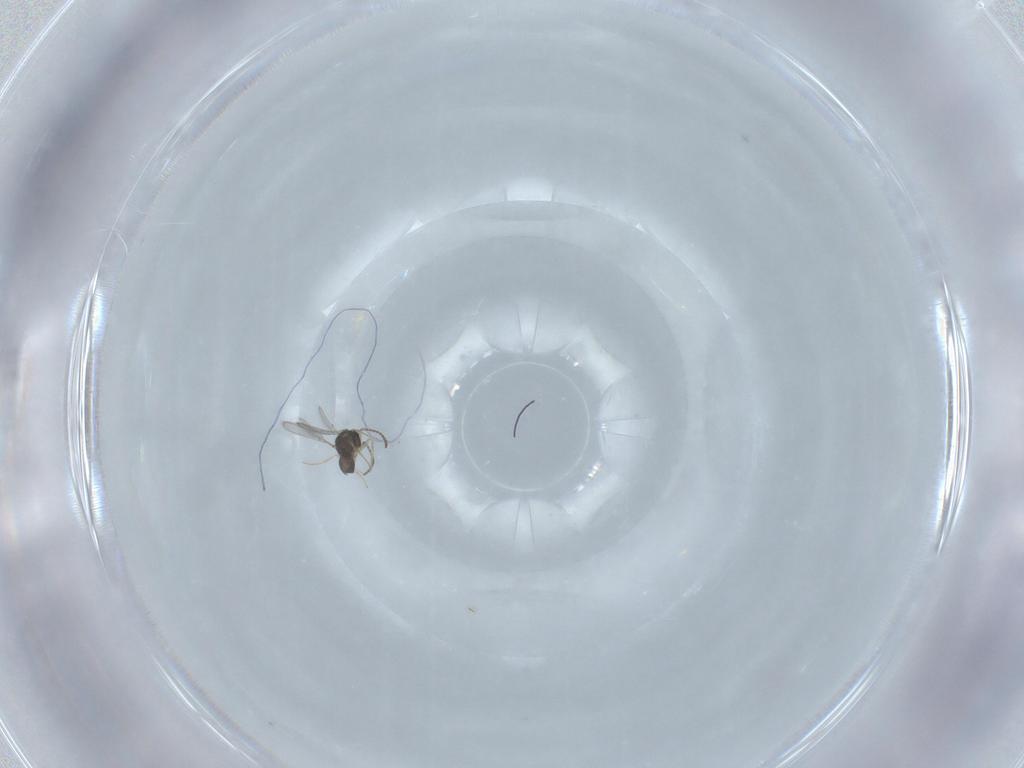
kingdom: Animalia
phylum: Arthropoda
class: Insecta
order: Hymenoptera
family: Scelionidae
